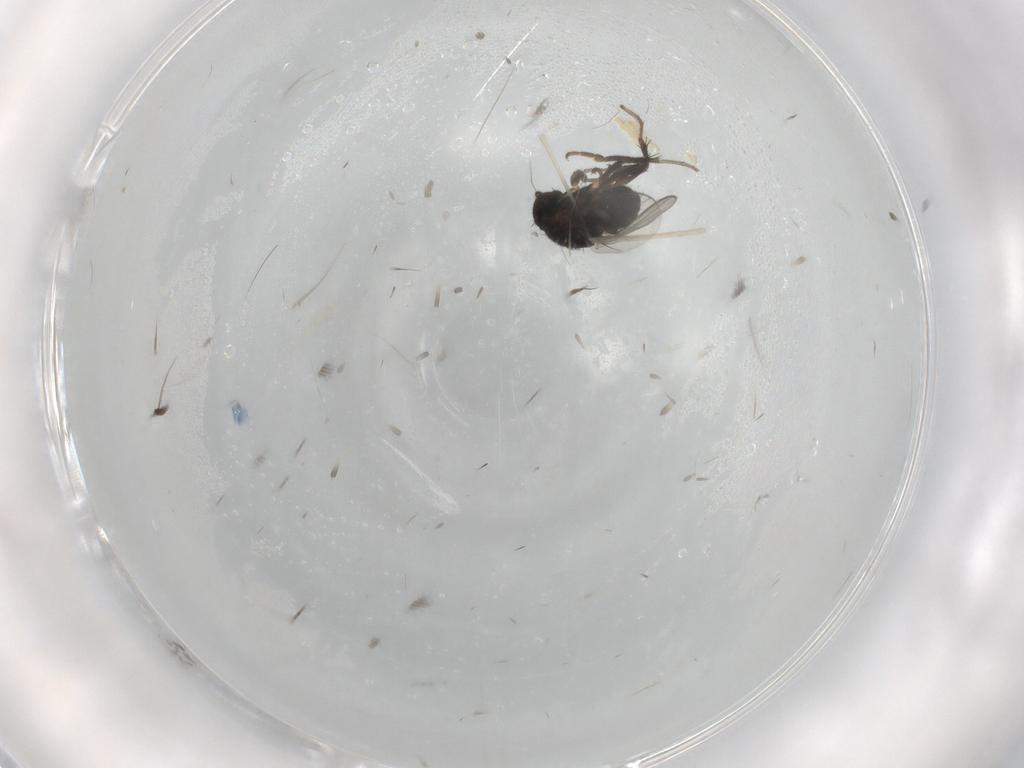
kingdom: Animalia
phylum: Arthropoda
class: Insecta
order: Diptera
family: Sphaeroceridae
